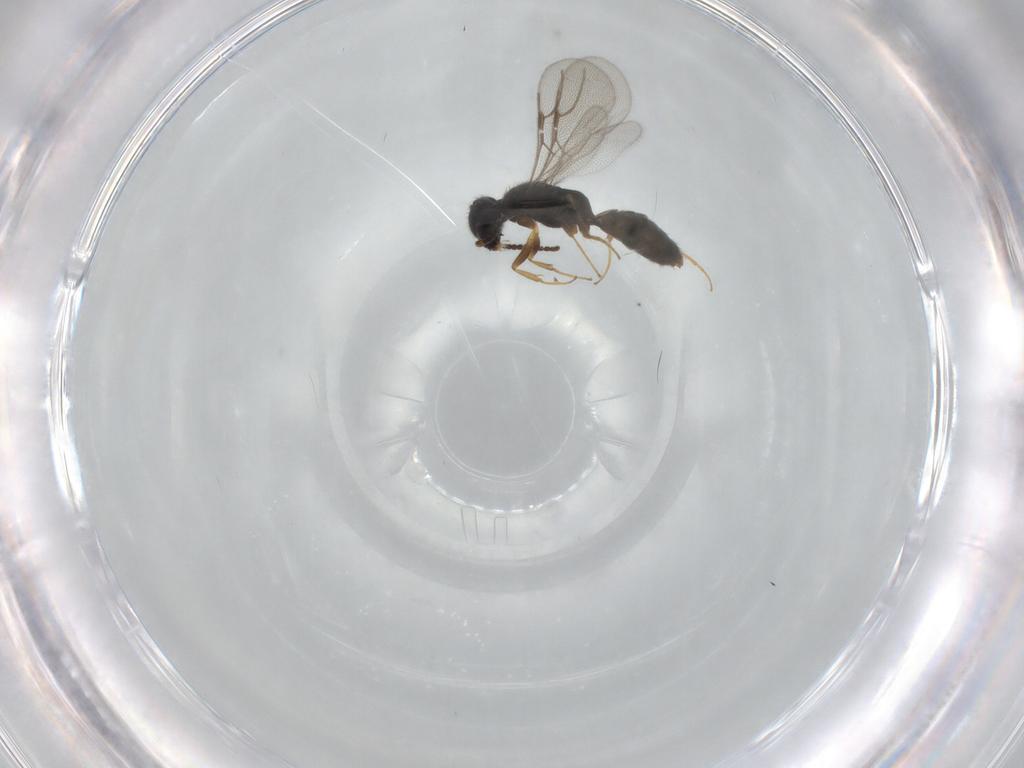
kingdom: Animalia
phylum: Arthropoda
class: Insecta
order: Hymenoptera
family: Bethylidae
